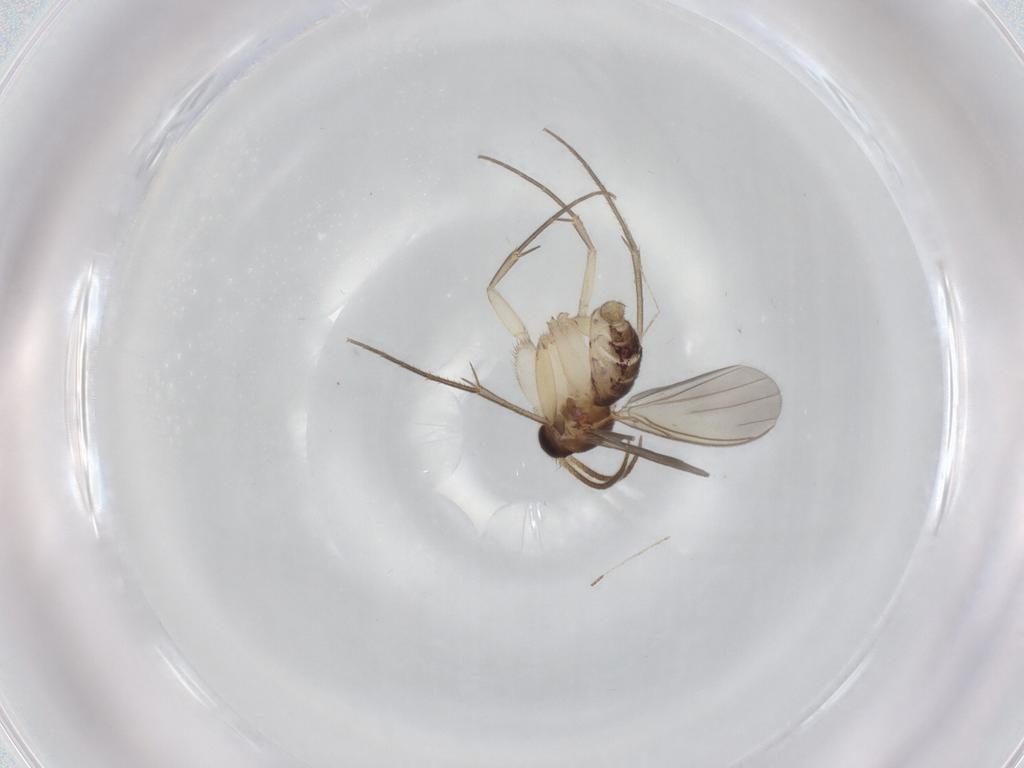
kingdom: Animalia
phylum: Arthropoda
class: Insecta
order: Diptera
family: Mycetophilidae
